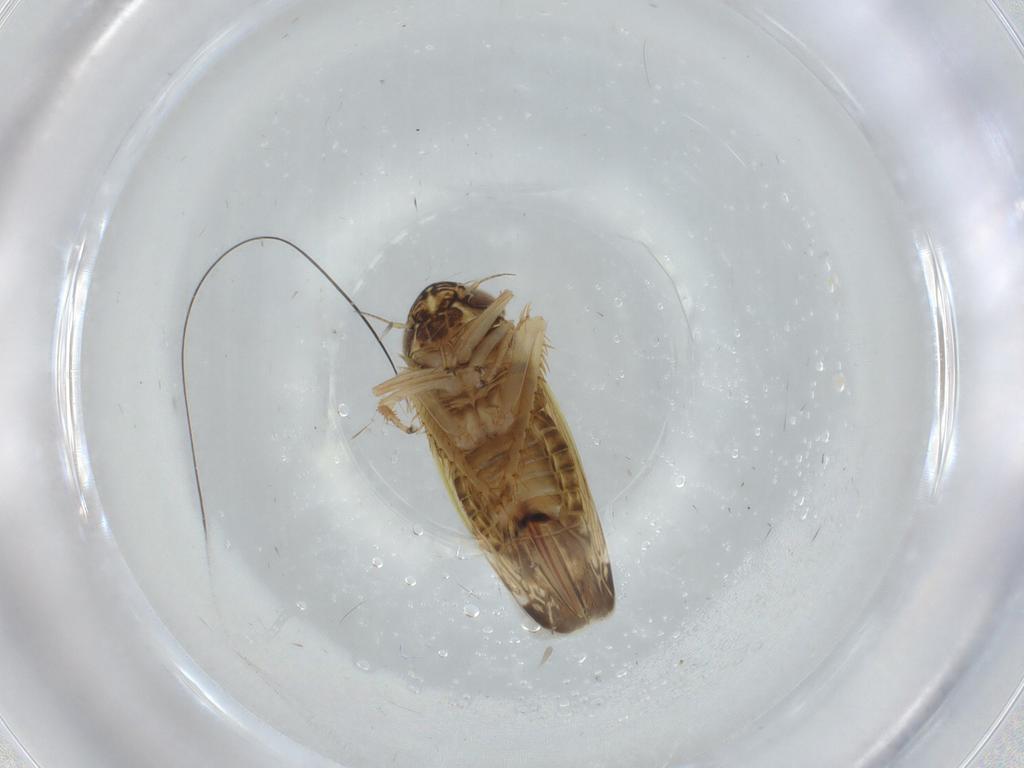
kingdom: Animalia
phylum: Arthropoda
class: Insecta
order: Hemiptera
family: Cicadellidae
